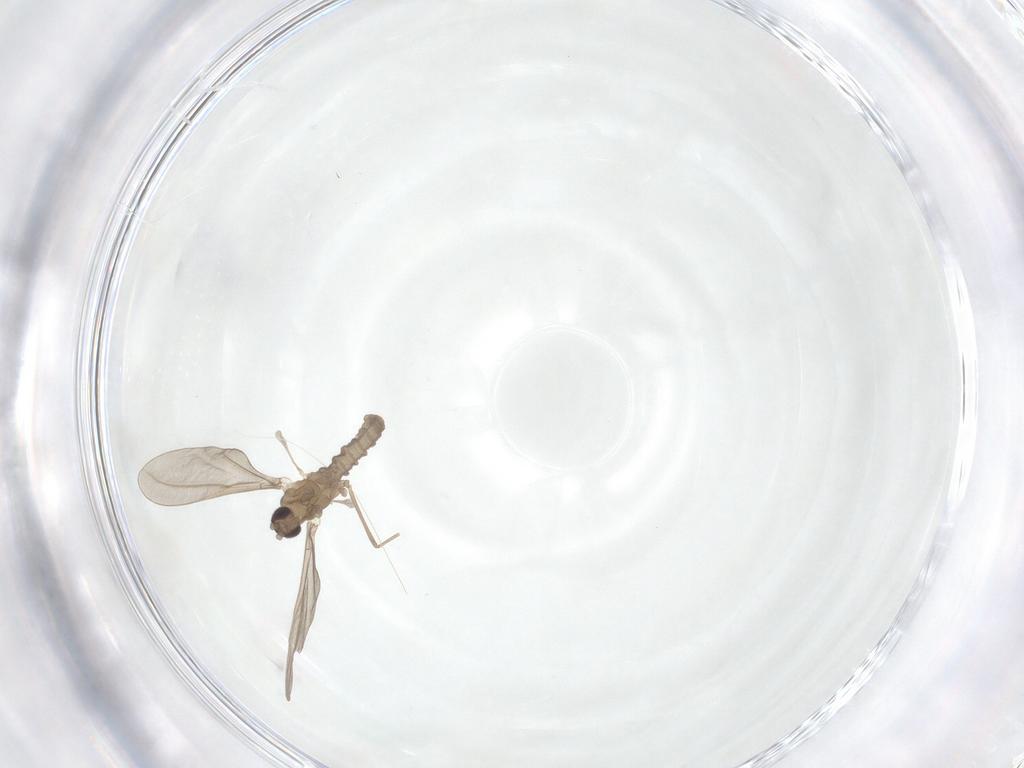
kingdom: Animalia
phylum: Arthropoda
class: Insecta
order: Diptera
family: Cecidomyiidae
